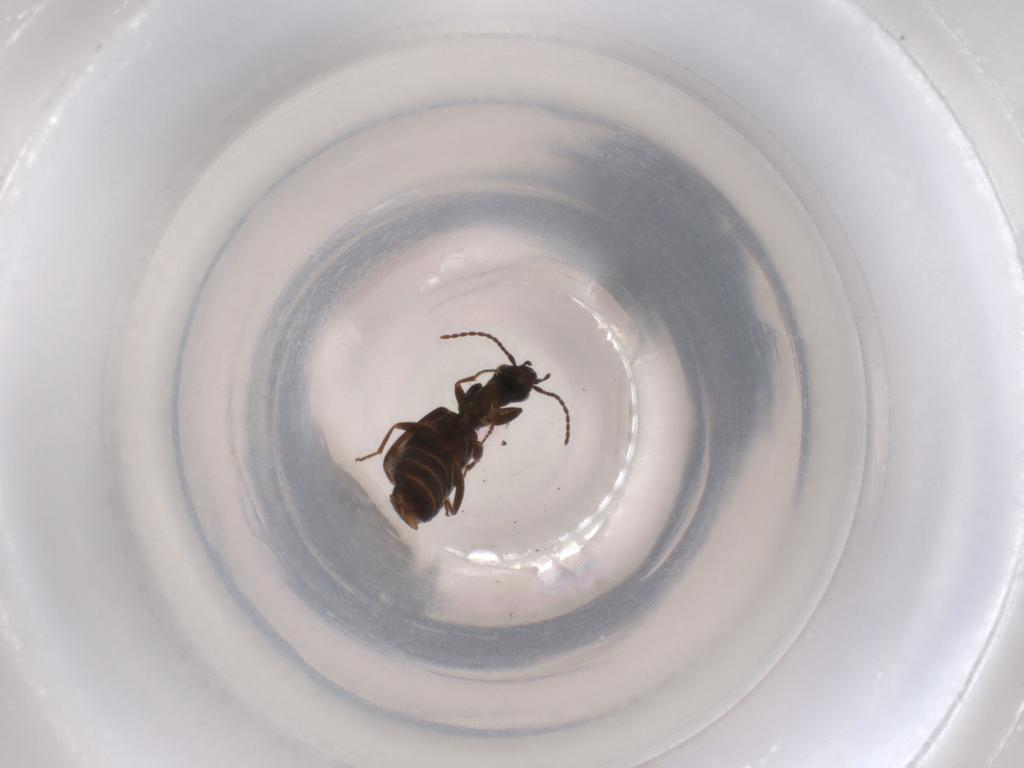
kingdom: Animalia
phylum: Arthropoda
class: Insecta
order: Coleoptera
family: Carabidae
